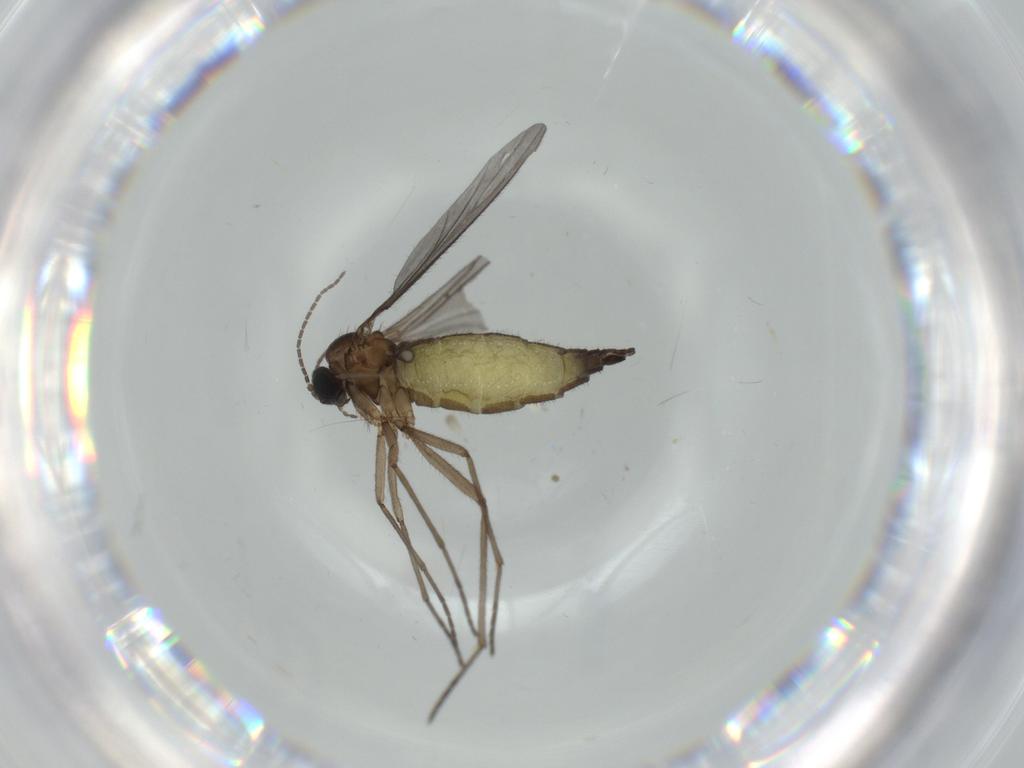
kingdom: Animalia
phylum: Arthropoda
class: Insecta
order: Diptera
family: Dolichopodidae
